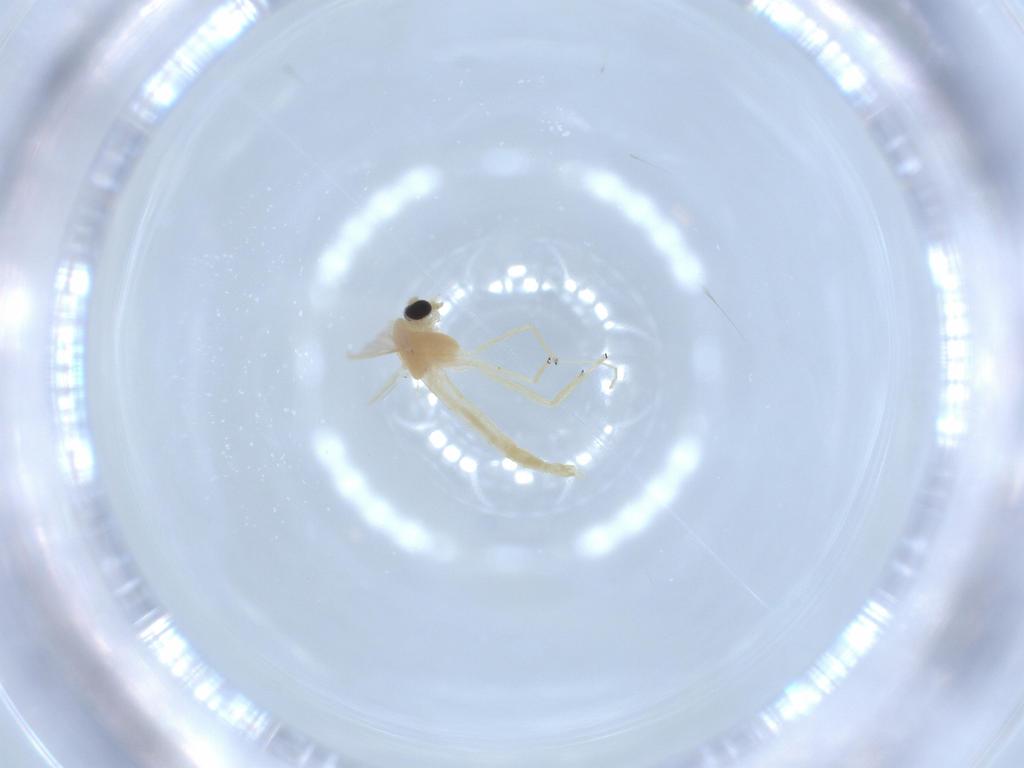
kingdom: Animalia
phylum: Arthropoda
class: Insecta
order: Diptera
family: Chironomidae
